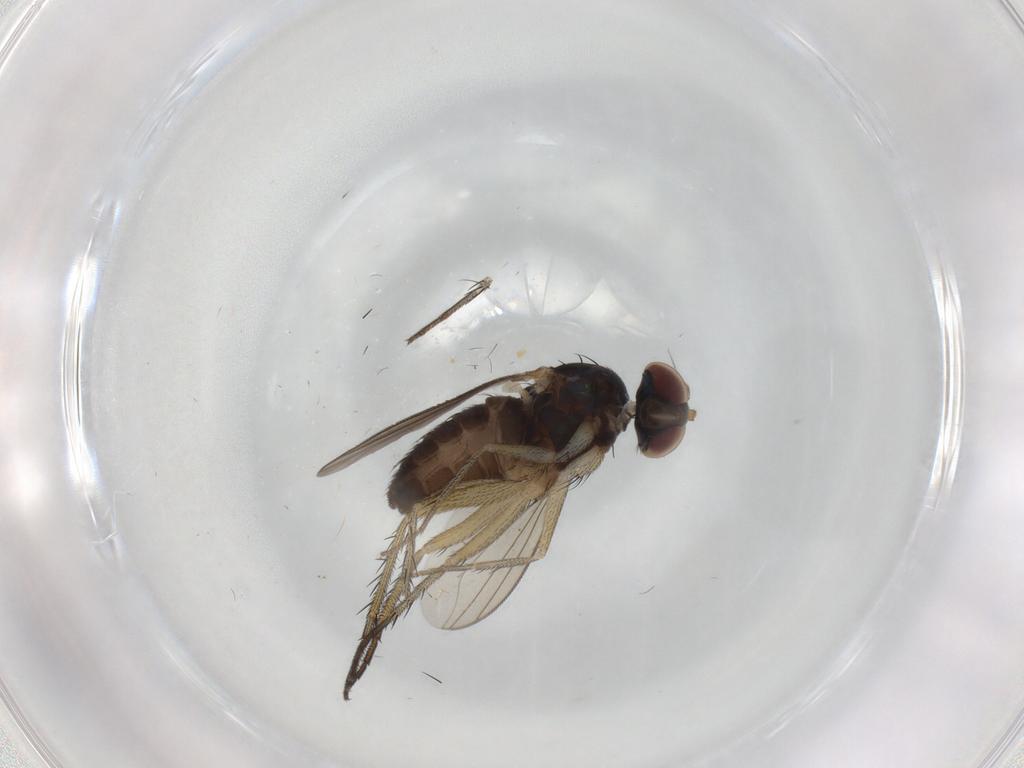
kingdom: Animalia
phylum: Arthropoda
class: Insecta
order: Diptera
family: Dolichopodidae
